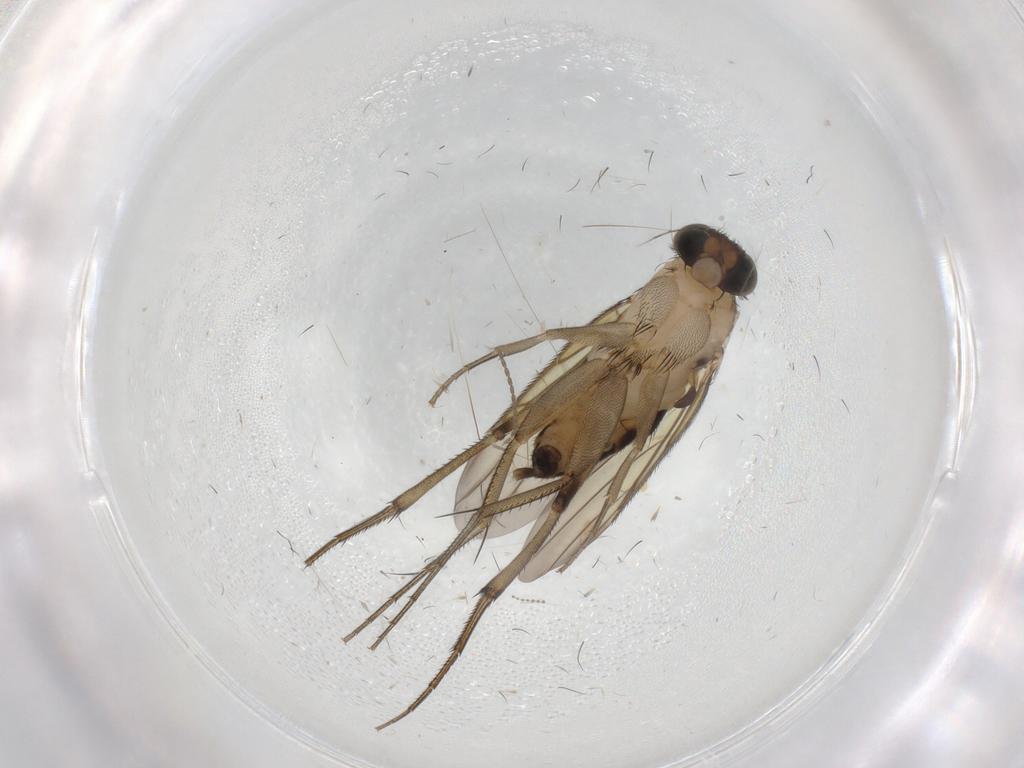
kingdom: Animalia
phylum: Arthropoda
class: Insecta
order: Diptera
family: Phoridae
